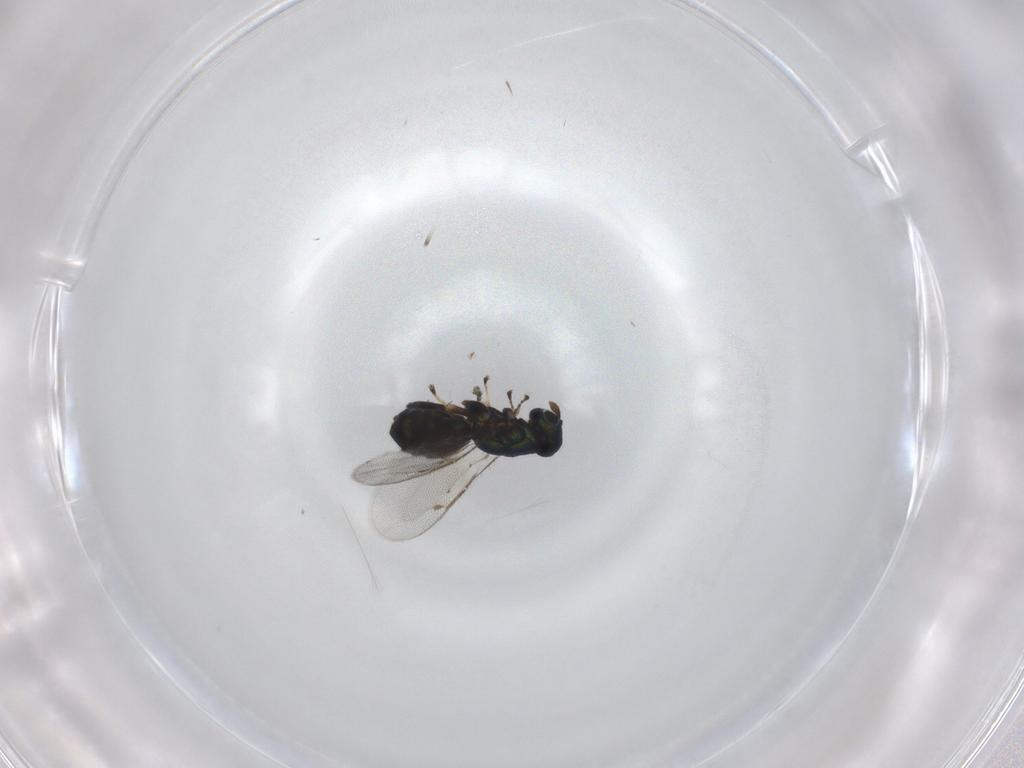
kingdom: Animalia
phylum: Arthropoda
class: Insecta
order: Hymenoptera
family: Eulophidae
